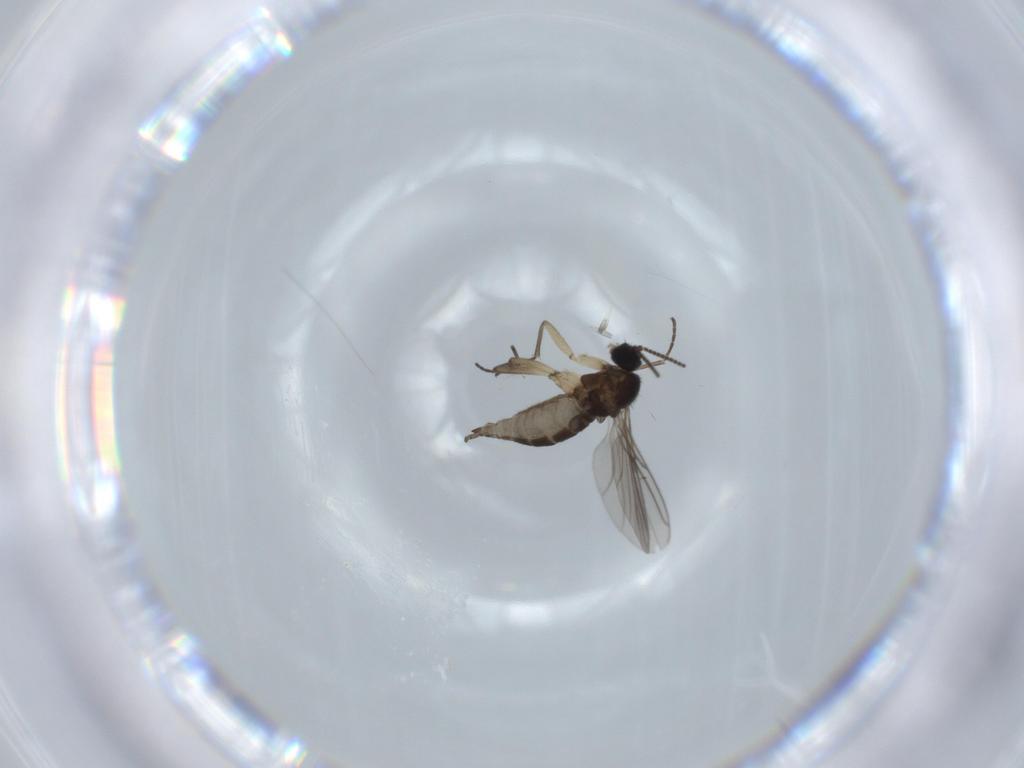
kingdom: Animalia
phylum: Arthropoda
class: Insecta
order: Diptera
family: Sciaridae
